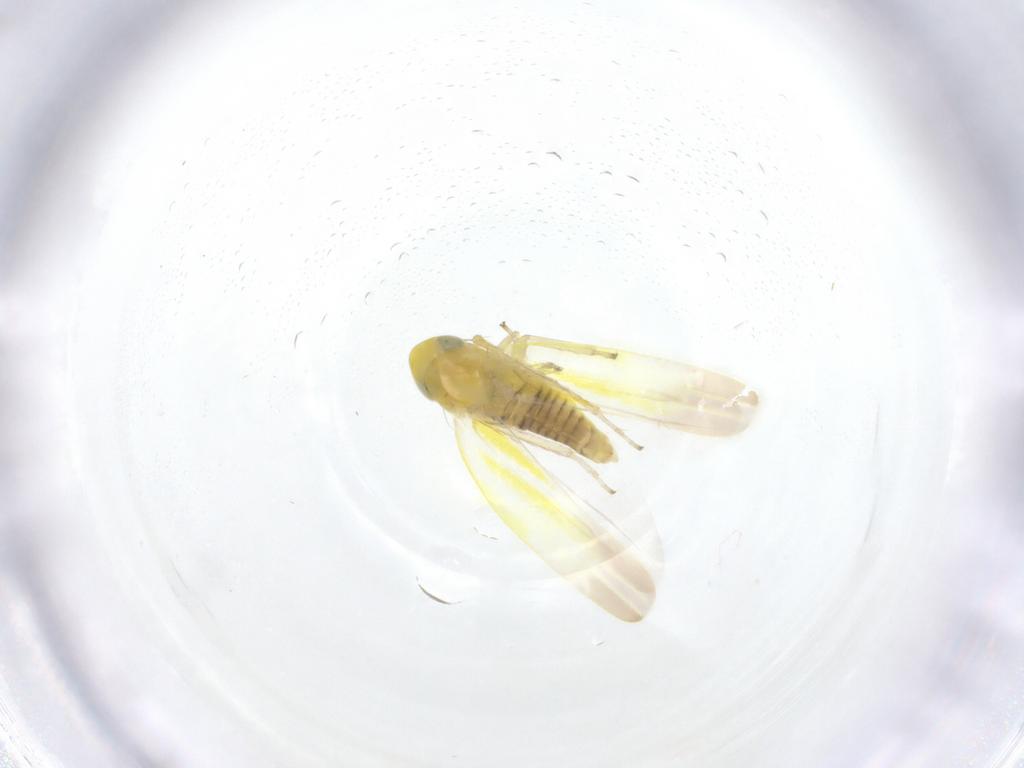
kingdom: Animalia
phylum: Arthropoda
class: Insecta
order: Hemiptera
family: Cicadellidae
